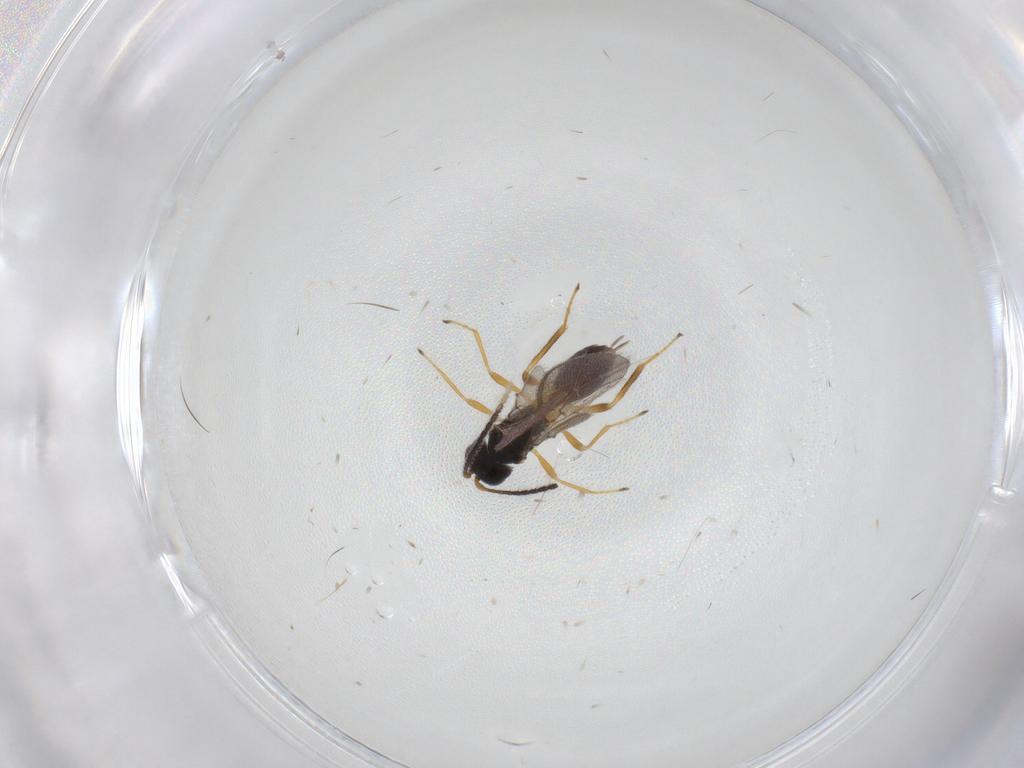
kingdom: Animalia
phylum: Arthropoda
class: Insecta
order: Hymenoptera
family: Braconidae
